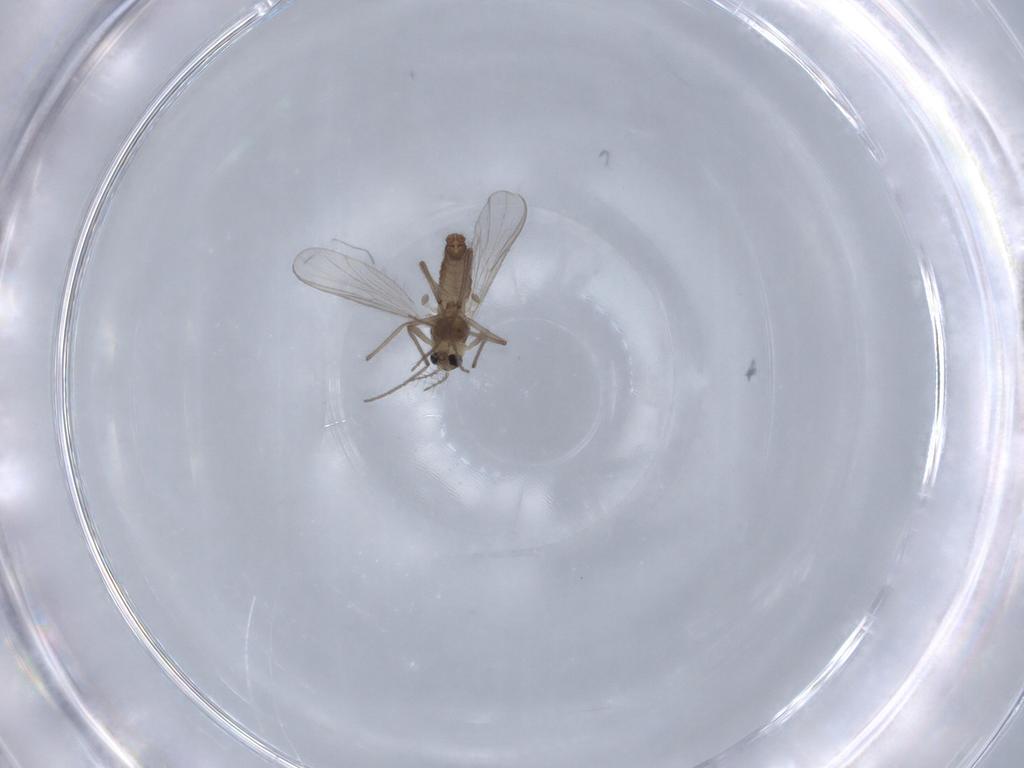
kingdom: Animalia
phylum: Arthropoda
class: Insecta
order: Diptera
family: Chironomidae
